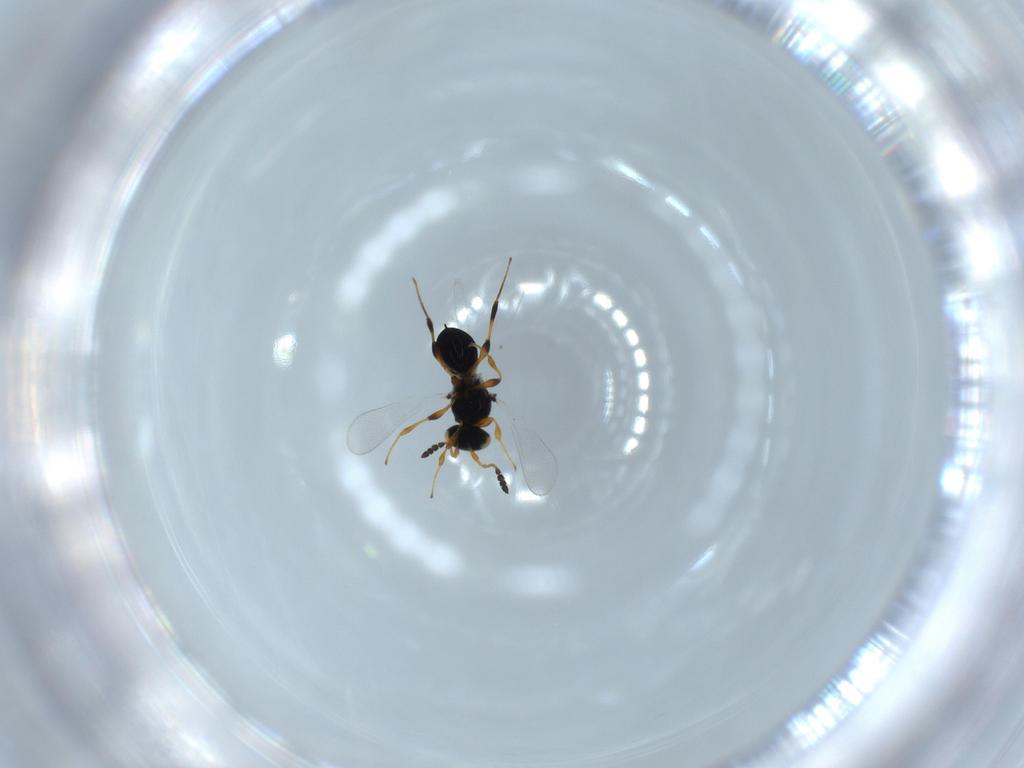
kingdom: Animalia
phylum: Arthropoda
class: Insecta
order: Hymenoptera
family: Platygastridae
